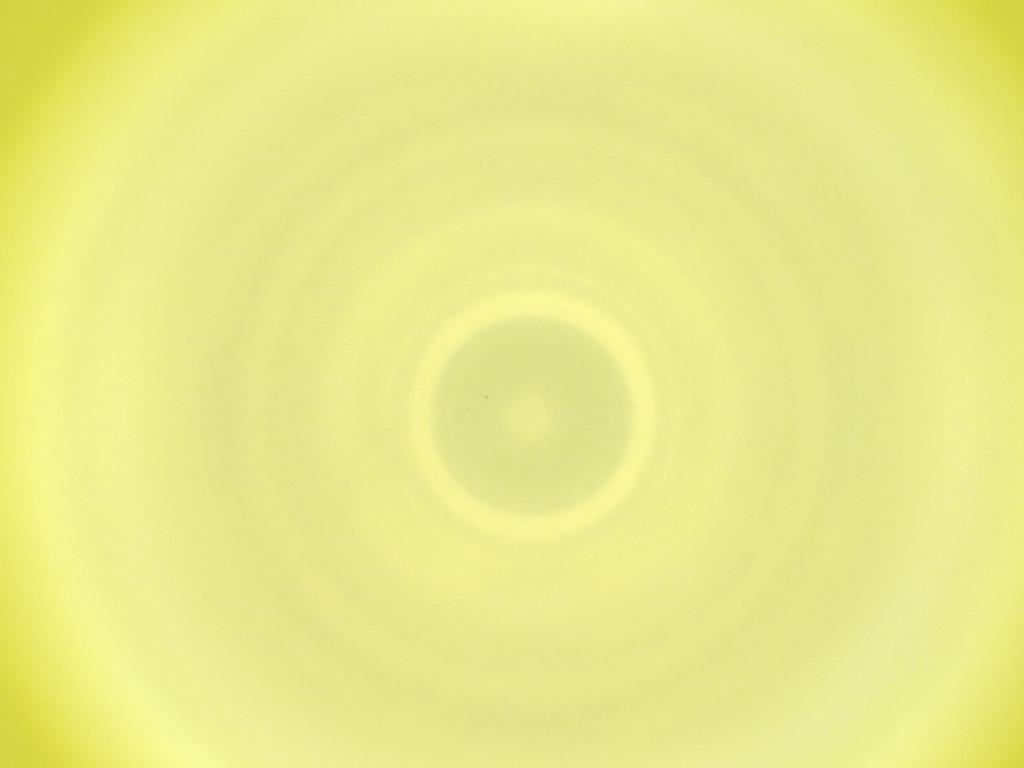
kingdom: Animalia
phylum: Arthropoda
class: Insecta
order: Diptera
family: Cecidomyiidae
